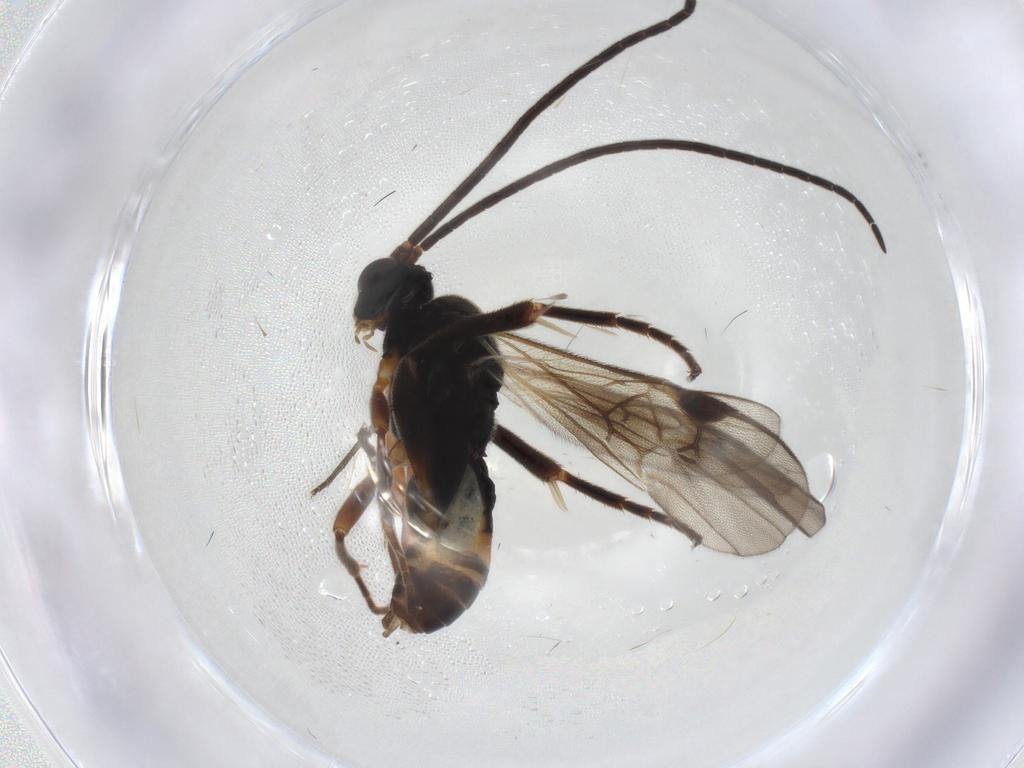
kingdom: Animalia
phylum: Arthropoda
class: Insecta
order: Hymenoptera
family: Braconidae
